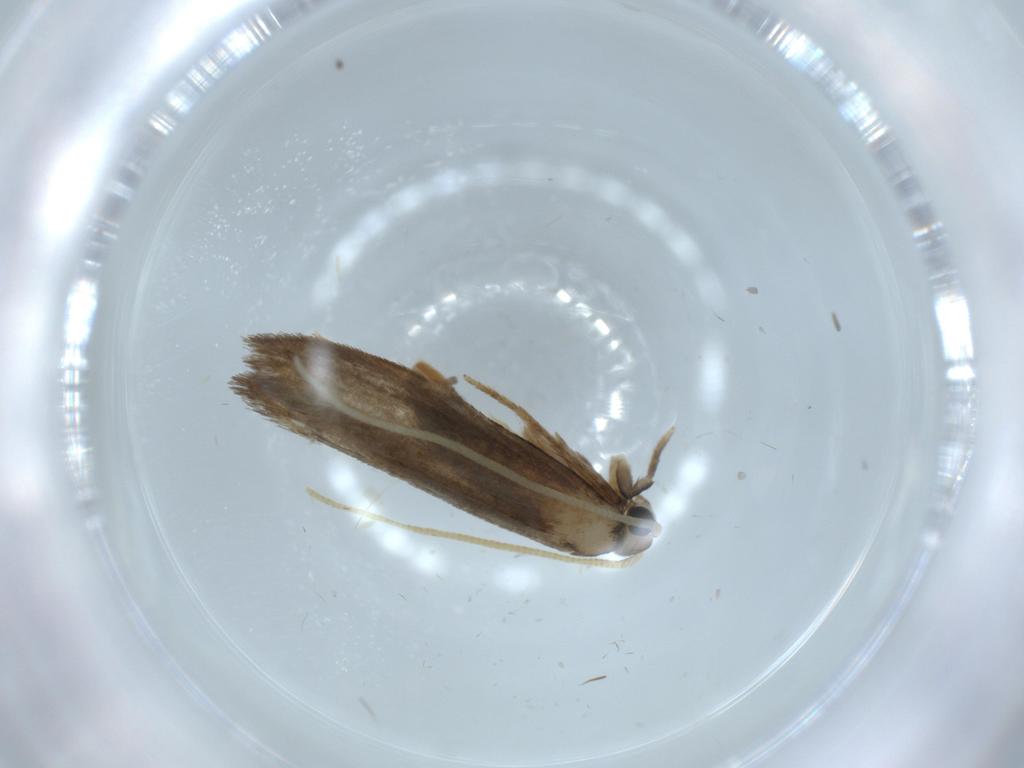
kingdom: Animalia
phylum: Arthropoda
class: Insecta
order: Lepidoptera
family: Tineidae
